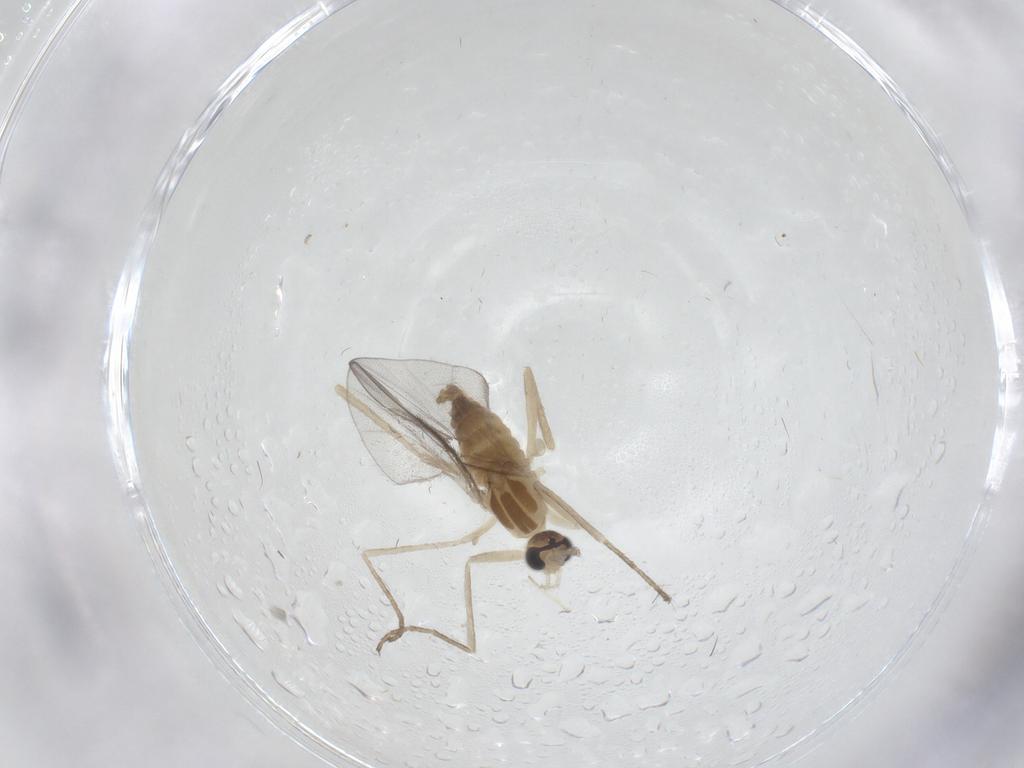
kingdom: Animalia
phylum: Arthropoda
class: Insecta
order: Diptera
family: Cecidomyiidae
